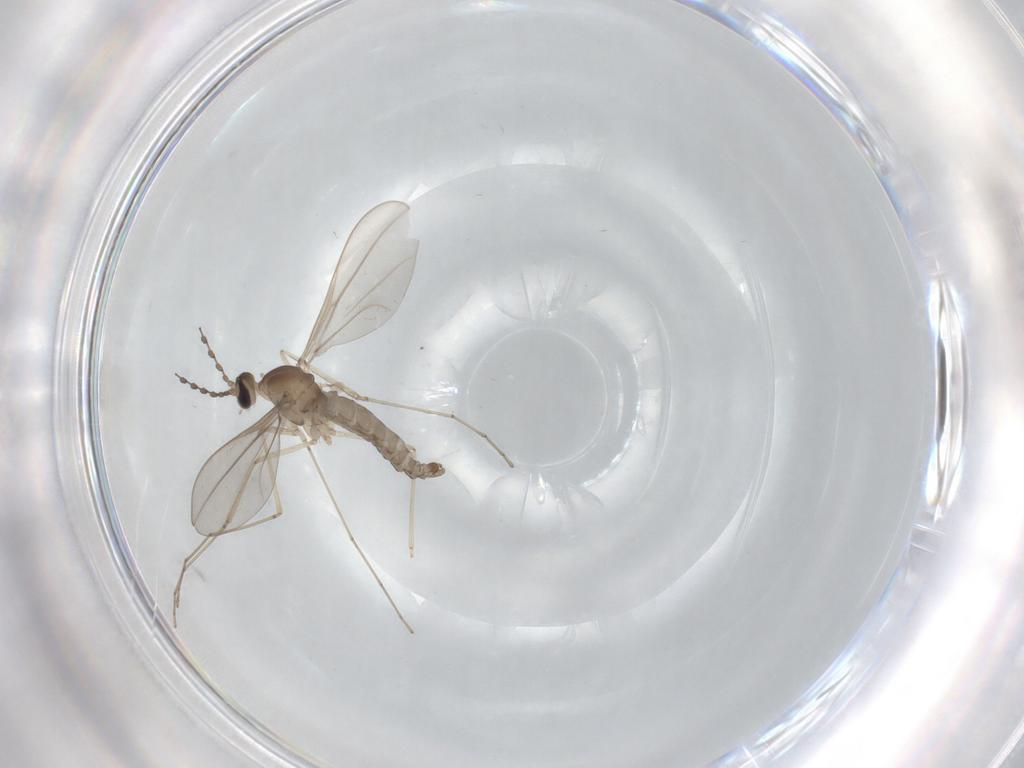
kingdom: Animalia
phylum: Arthropoda
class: Insecta
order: Diptera
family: Cecidomyiidae
